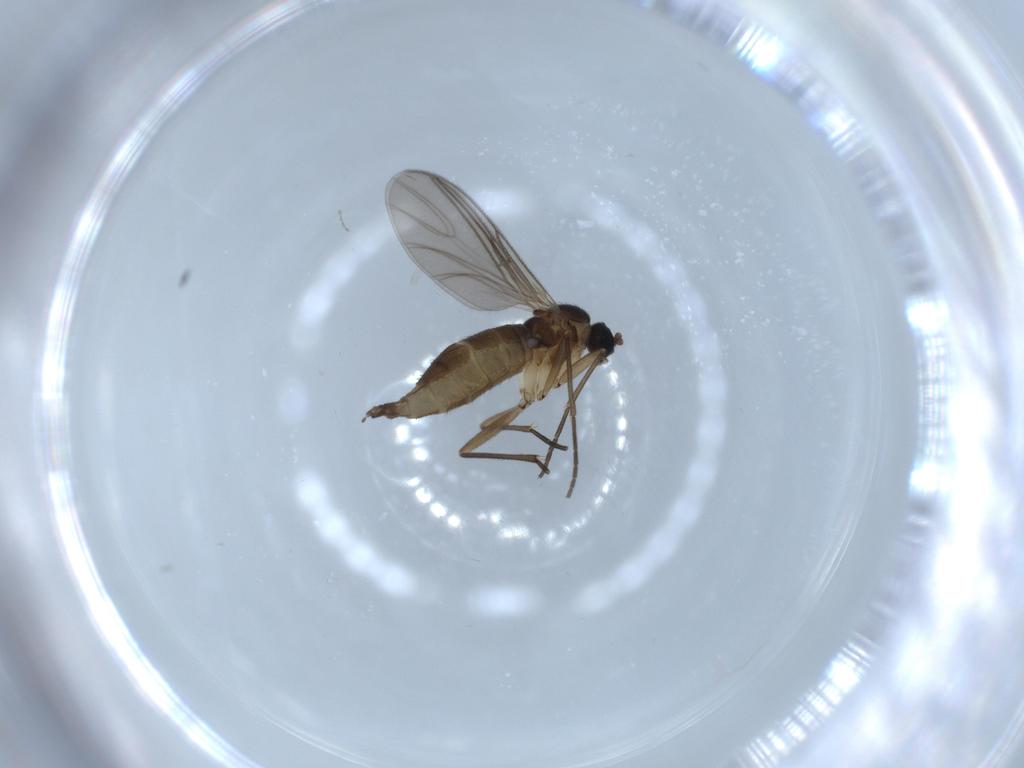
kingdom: Animalia
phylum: Arthropoda
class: Insecta
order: Diptera
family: Sciaridae
